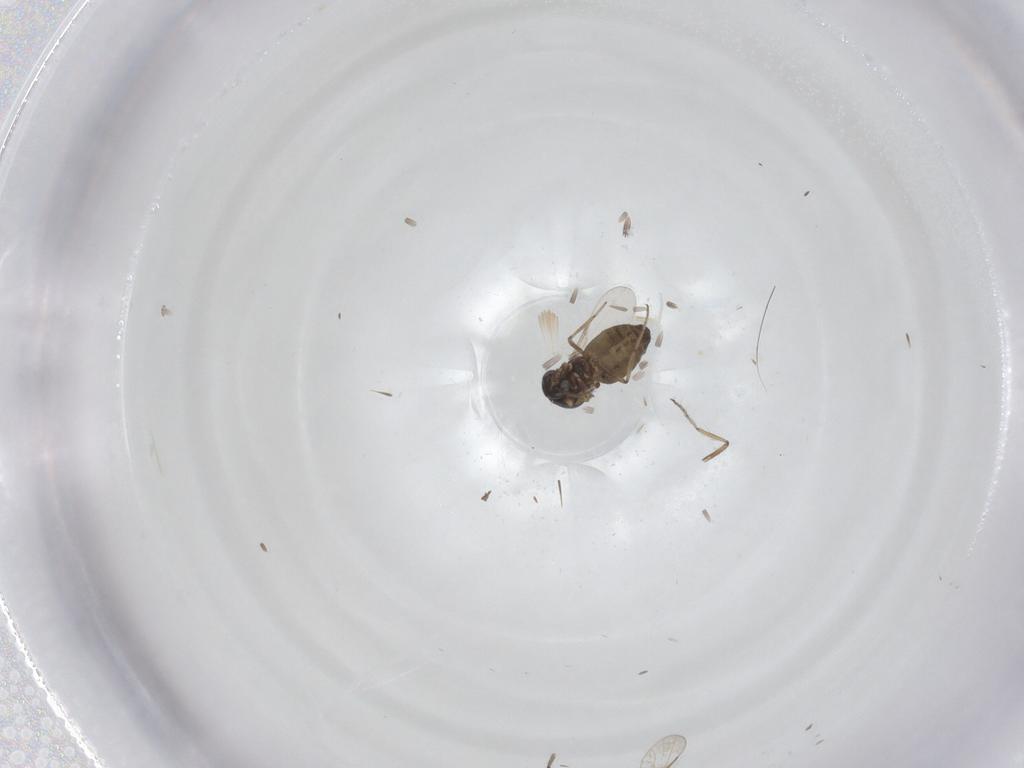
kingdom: Animalia
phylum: Arthropoda
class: Insecta
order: Diptera
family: Ceratopogonidae
